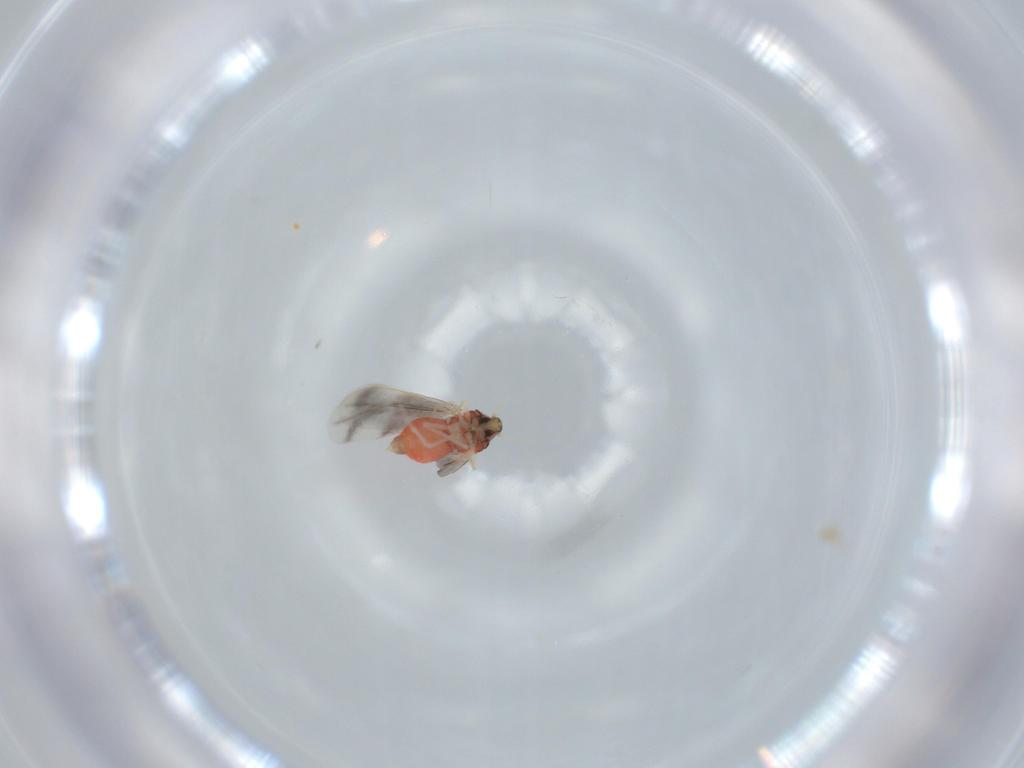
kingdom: Animalia
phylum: Arthropoda
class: Insecta
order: Hemiptera
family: Aleyrodidae
